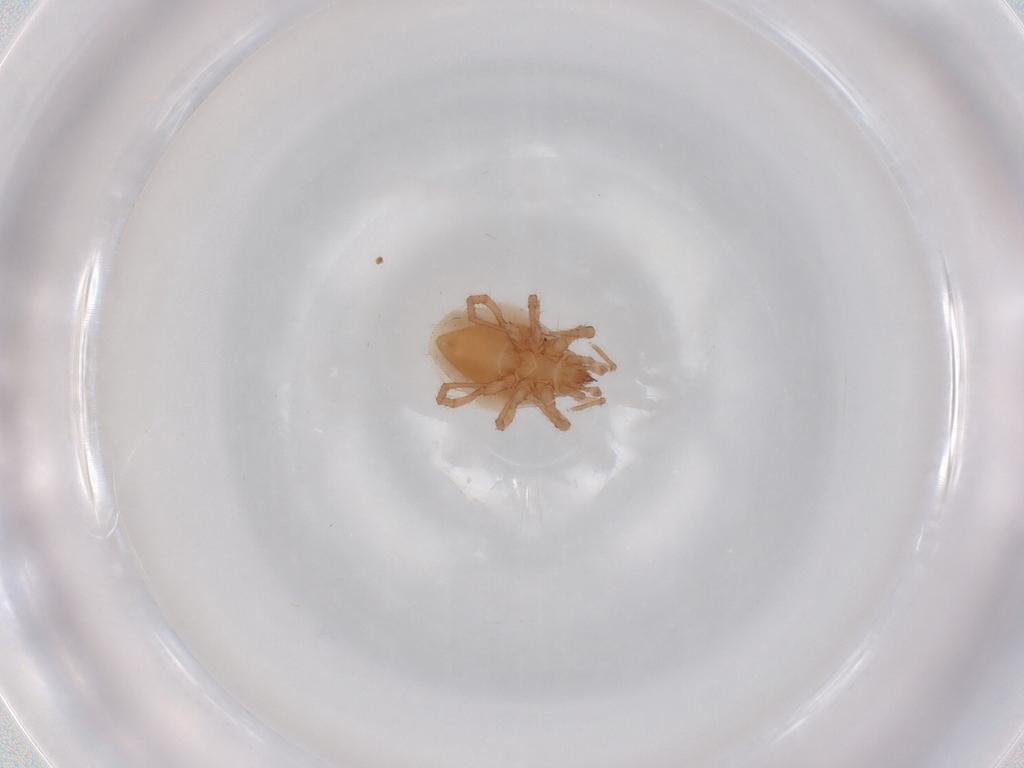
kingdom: Animalia
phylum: Arthropoda
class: Arachnida
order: Mesostigmata
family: Parasitidae
